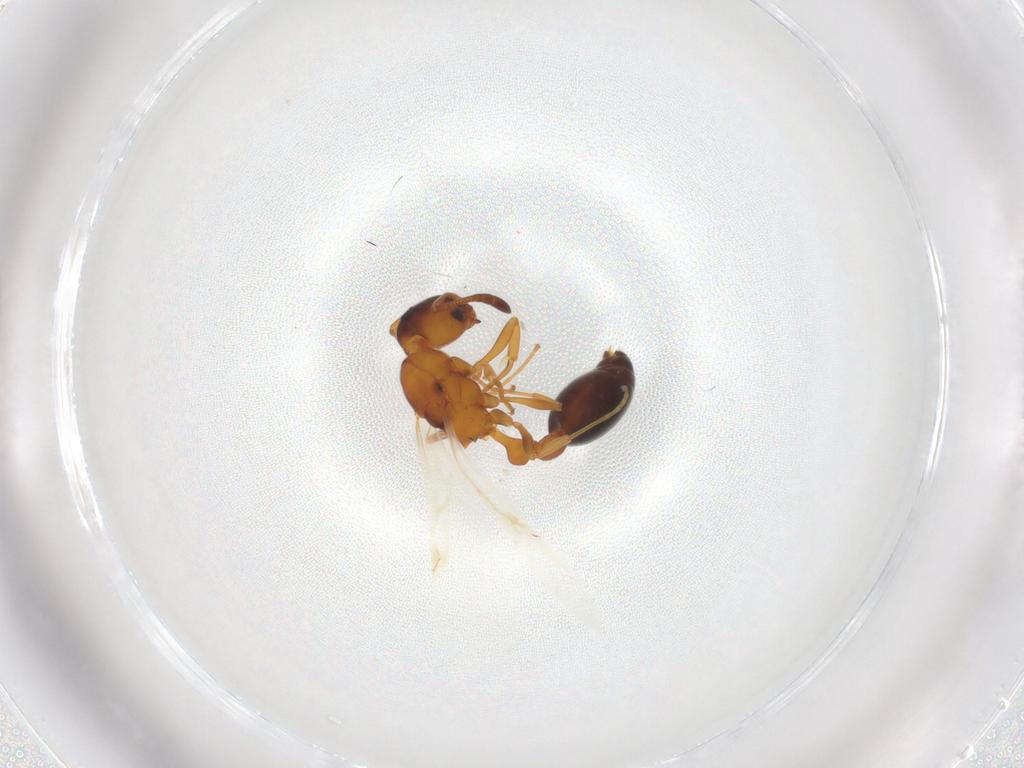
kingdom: Animalia
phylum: Arthropoda
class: Insecta
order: Hymenoptera
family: Formicidae
